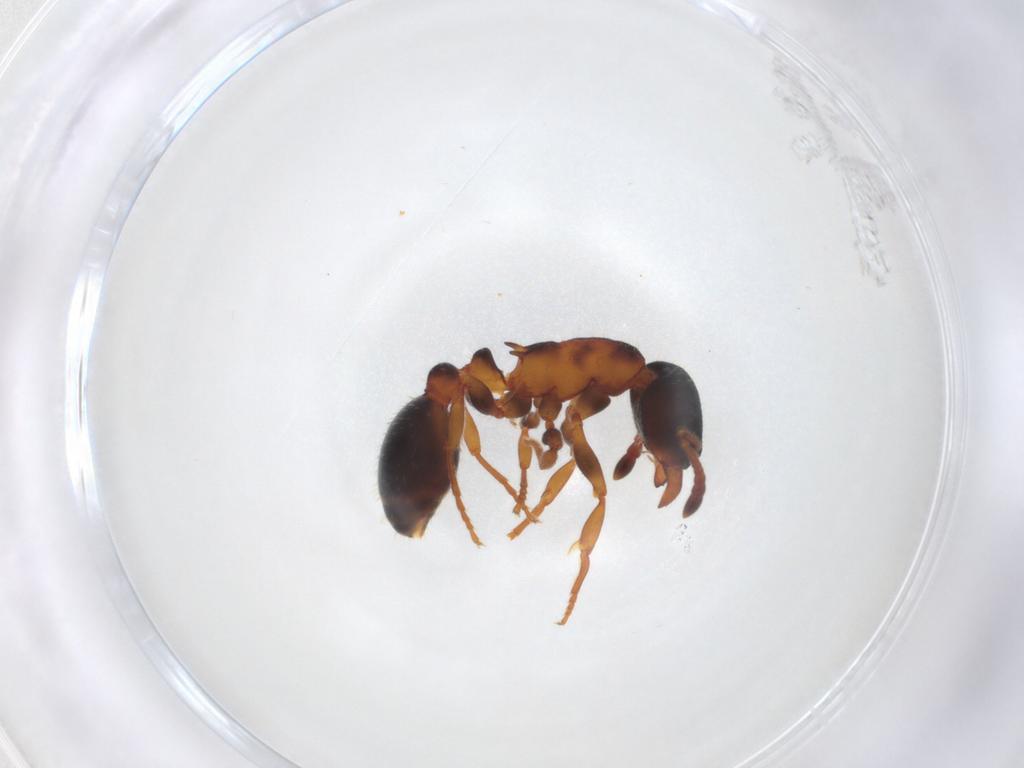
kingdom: Animalia
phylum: Arthropoda
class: Insecta
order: Hymenoptera
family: Formicidae
